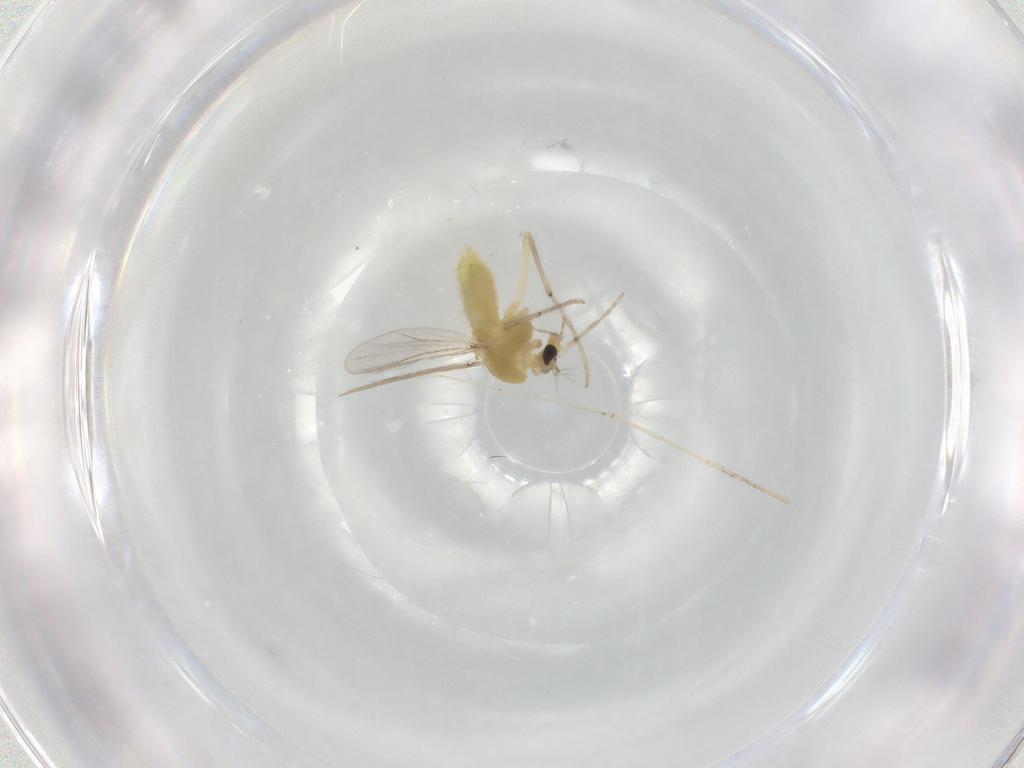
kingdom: Animalia
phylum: Arthropoda
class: Insecta
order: Diptera
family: Chironomidae
